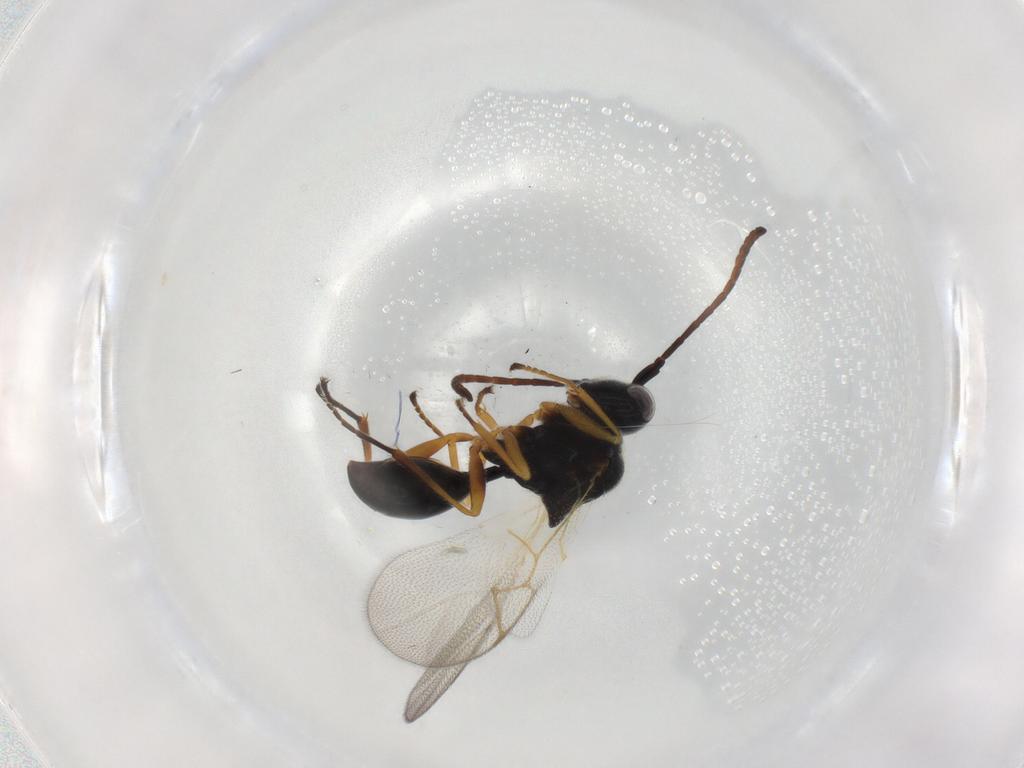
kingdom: Animalia
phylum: Arthropoda
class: Insecta
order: Hymenoptera
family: Figitidae
